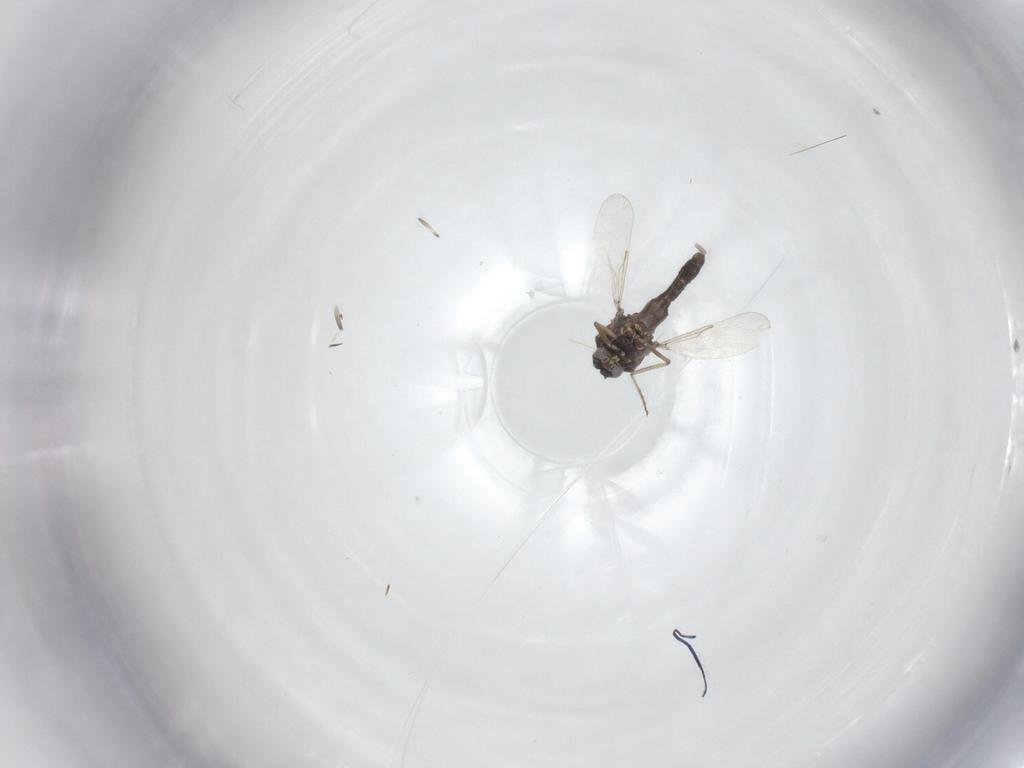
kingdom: Animalia
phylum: Arthropoda
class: Insecta
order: Diptera
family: Ceratopogonidae
